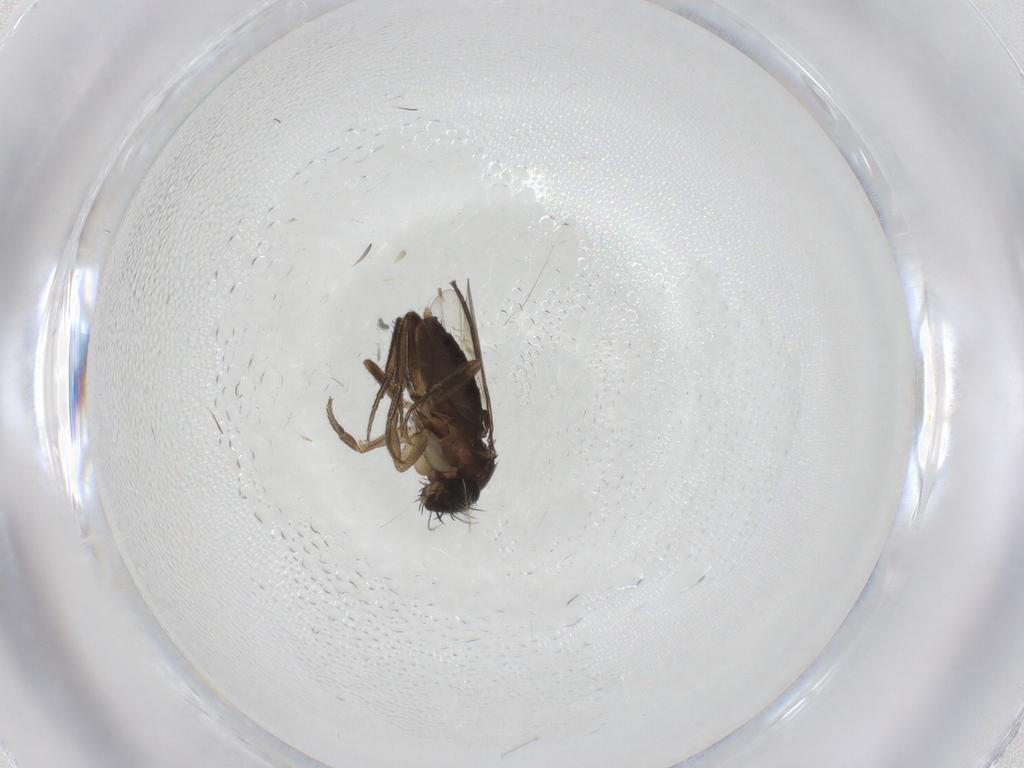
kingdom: Animalia
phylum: Arthropoda
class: Insecta
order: Diptera
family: Phoridae
